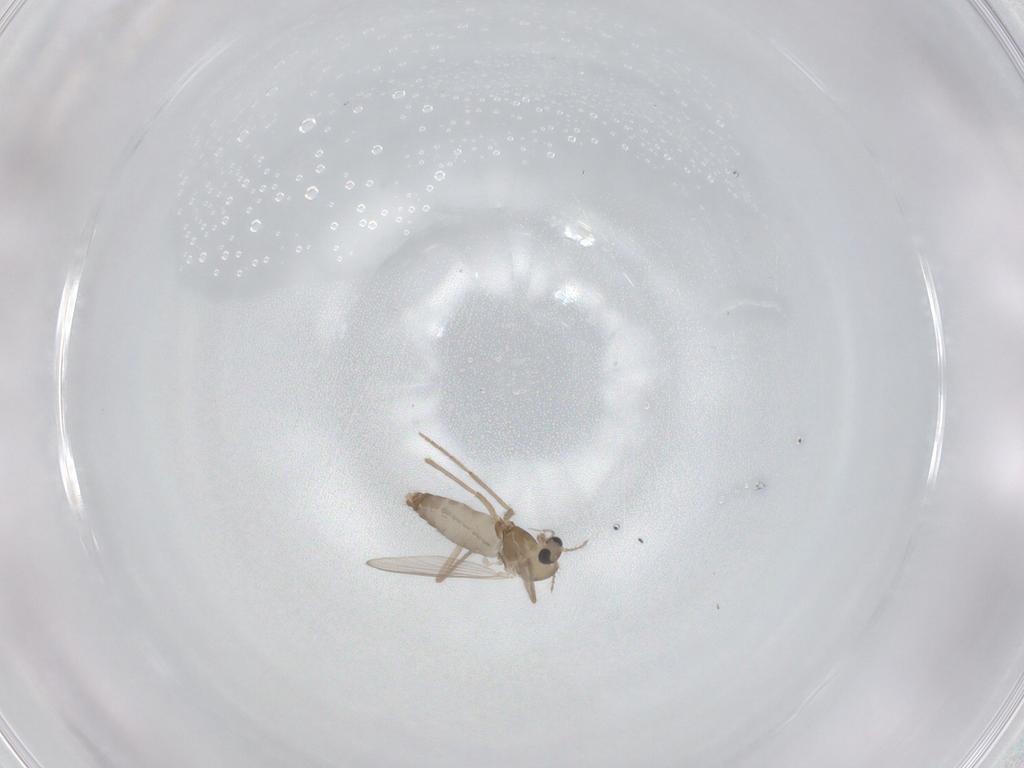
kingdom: Animalia
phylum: Arthropoda
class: Insecta
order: Diptera
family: Chironomidae
